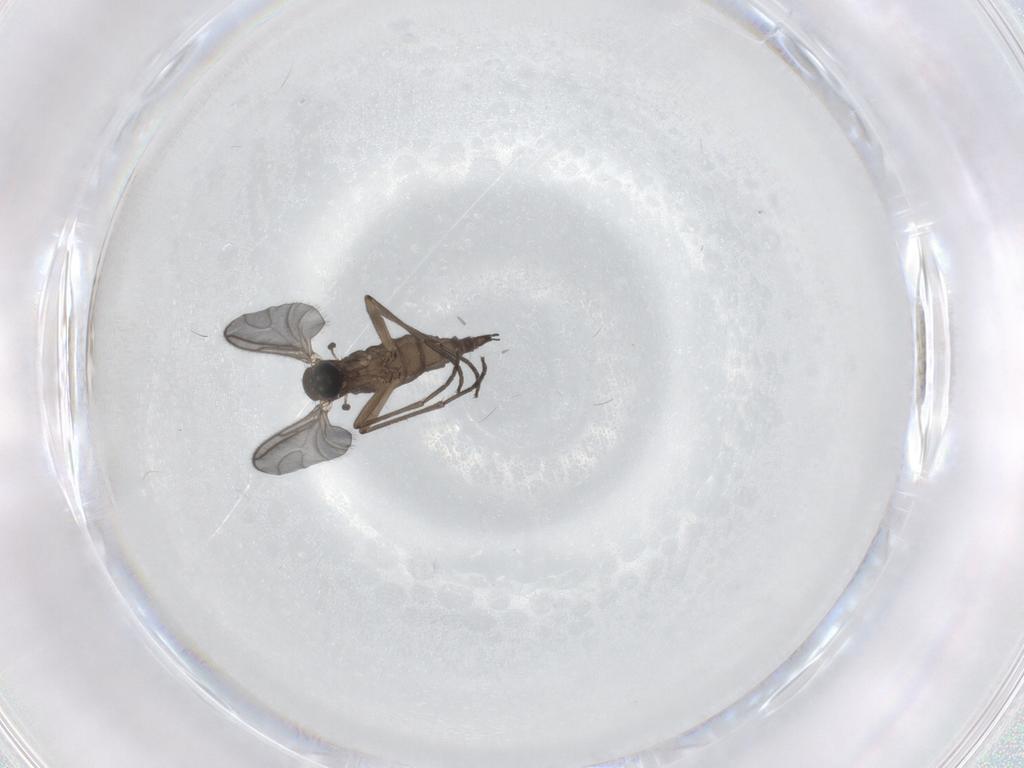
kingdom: Animalia
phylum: Arthropoda
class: Insecta
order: Diptera
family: Sciaridae
